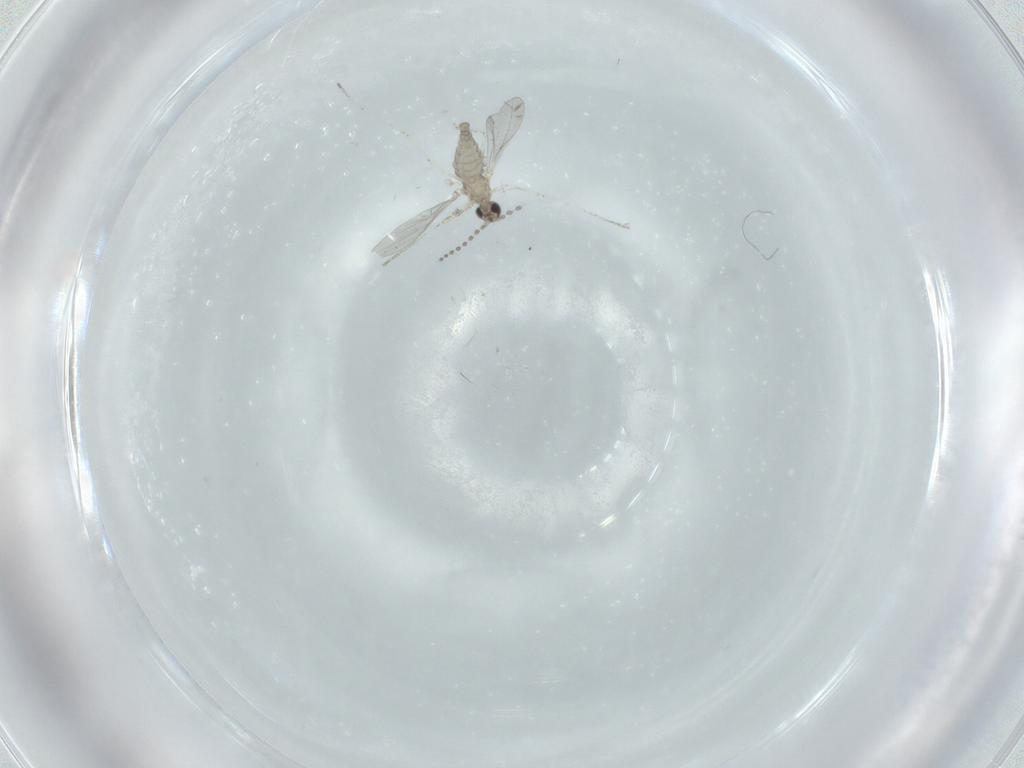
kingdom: Animalia
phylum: Arthropoda
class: Insecta
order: Diptera
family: Cecidomyiidae
